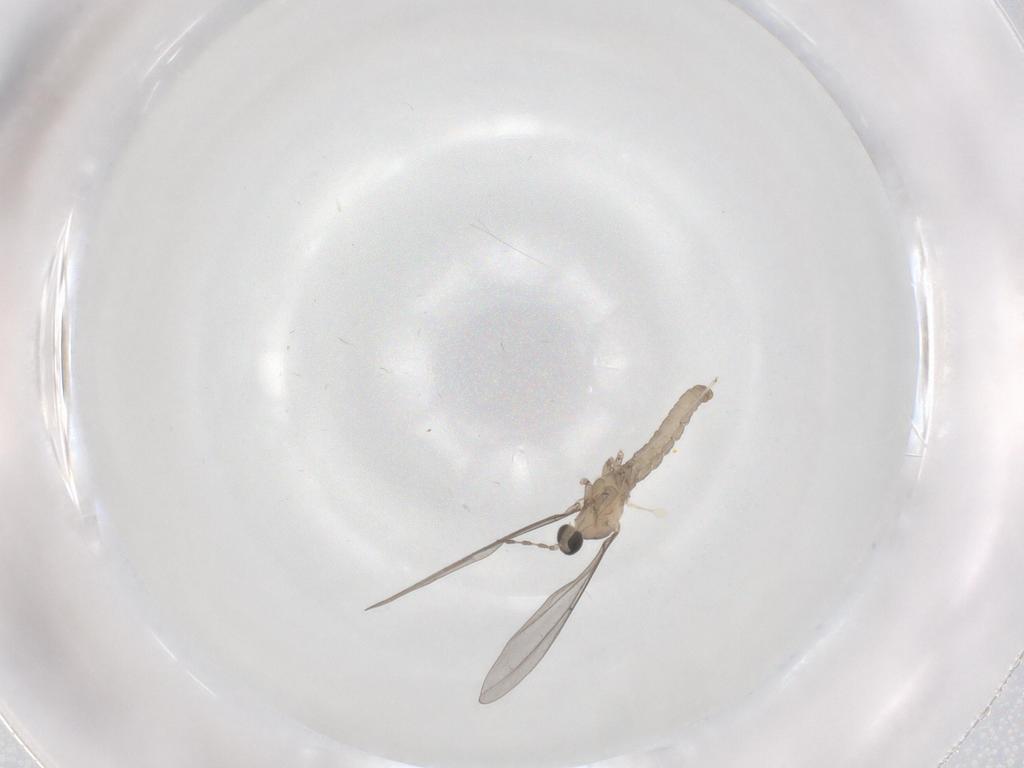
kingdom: Animalia
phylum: Arthropoda
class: Insecta
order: Diptera
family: Cecidomyiidae
